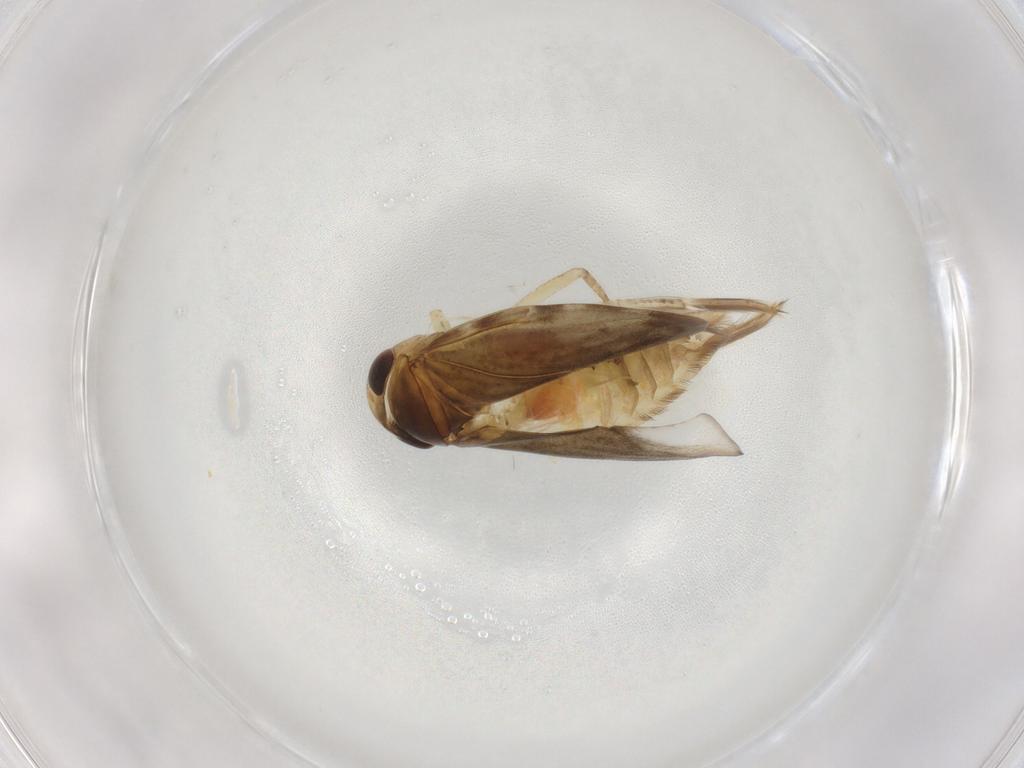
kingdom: Animalia
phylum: Arthropoda
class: Insecta
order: Hemiptera
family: Corixidae
